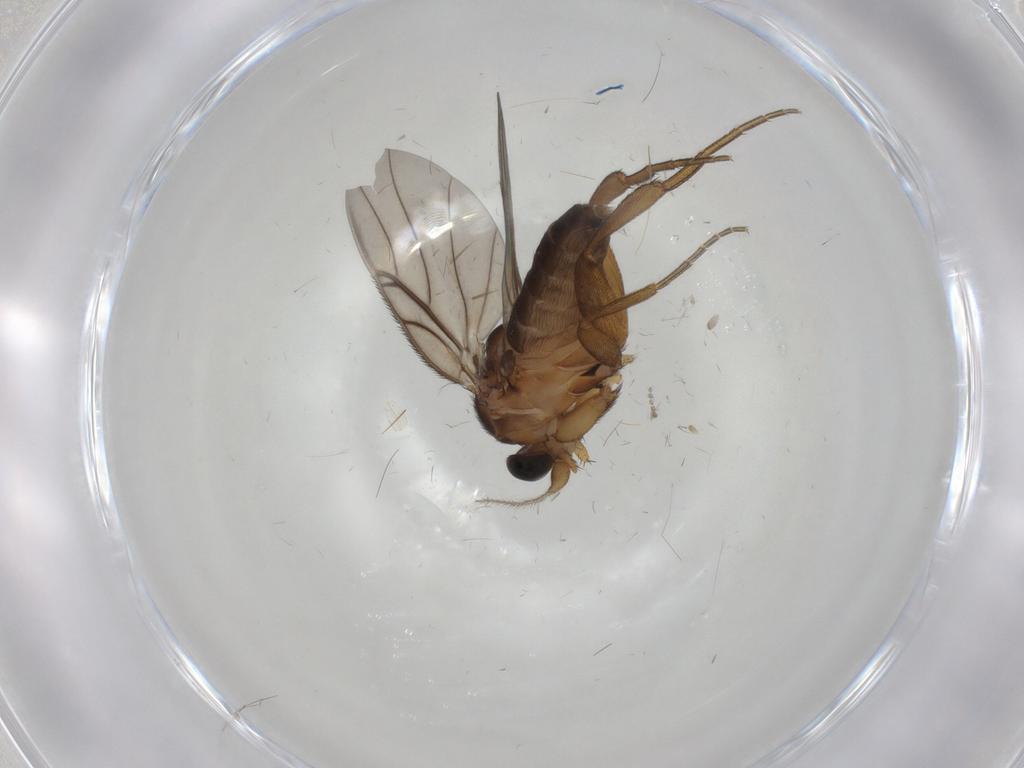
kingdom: Animalia
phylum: Arthropoda
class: Insecta
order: Diptera
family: Phoridae
